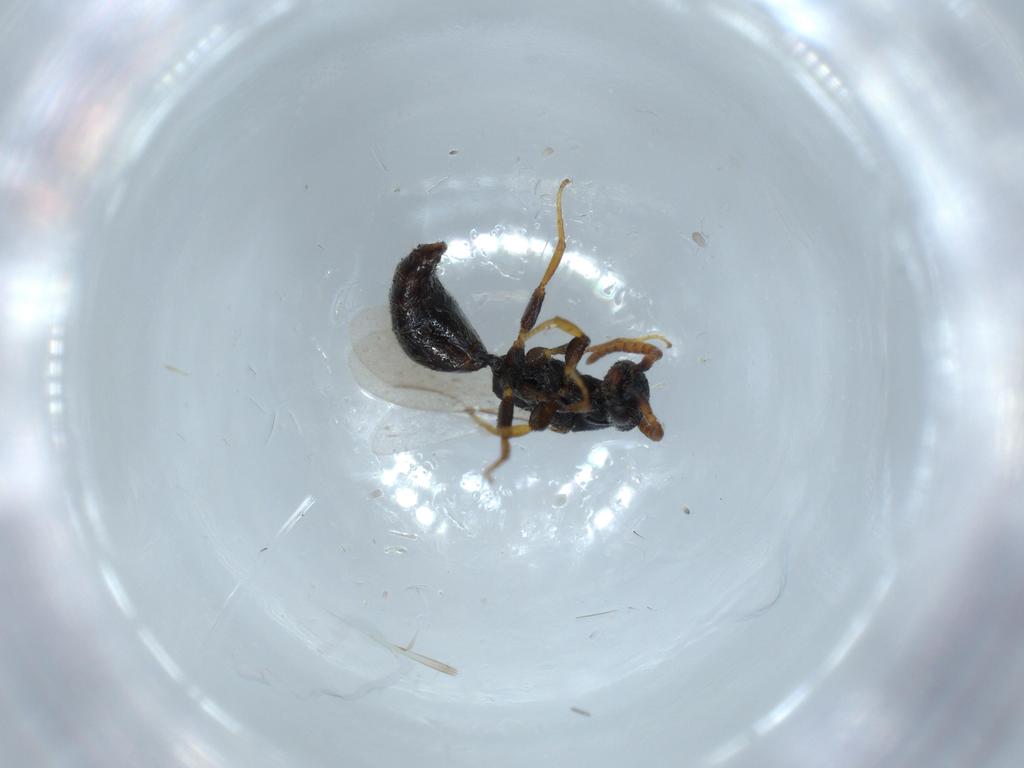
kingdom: Animalia
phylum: Arthropoda
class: Insecta
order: Hymenoptera
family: Bethylidae
